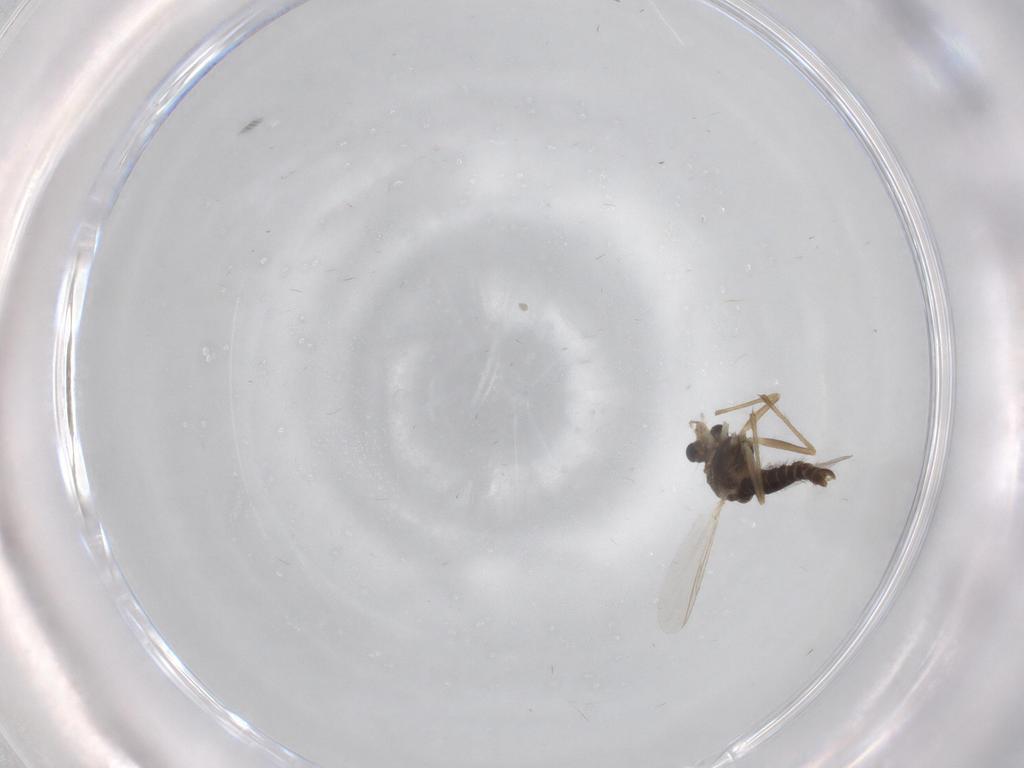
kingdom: Animalia
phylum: Arthropoda
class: Insecta
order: Diptera
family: Chironomidae
